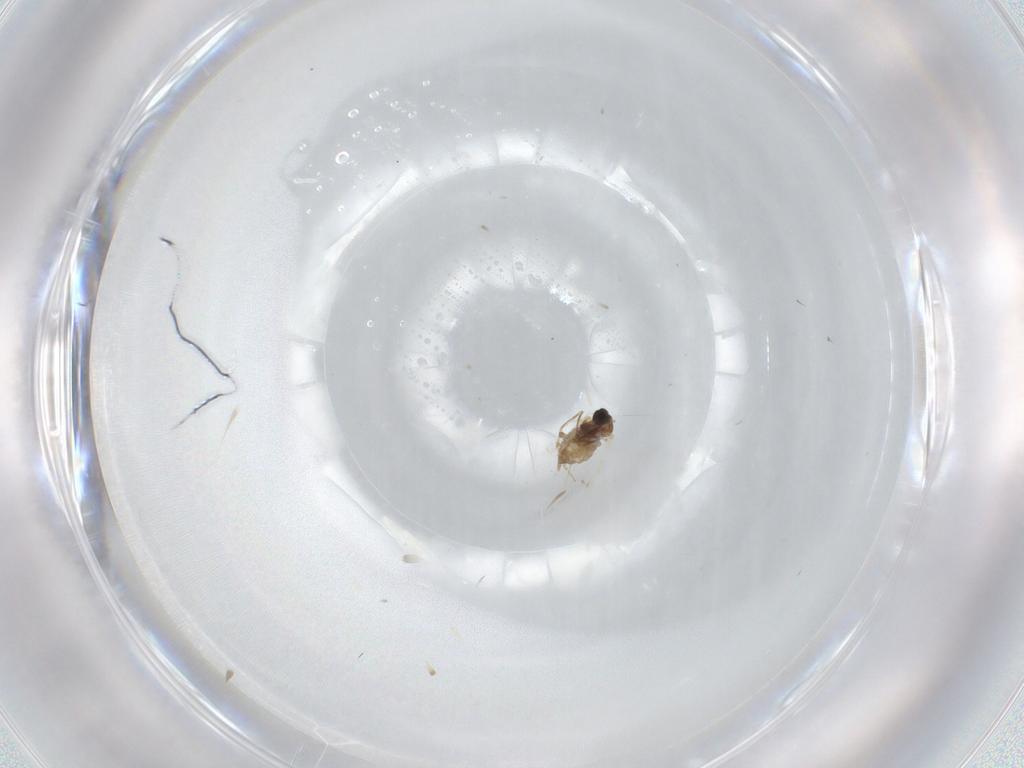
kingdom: Animalia
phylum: Arthropoda
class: Insecta
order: Diptera
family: Cecidomyiidae
